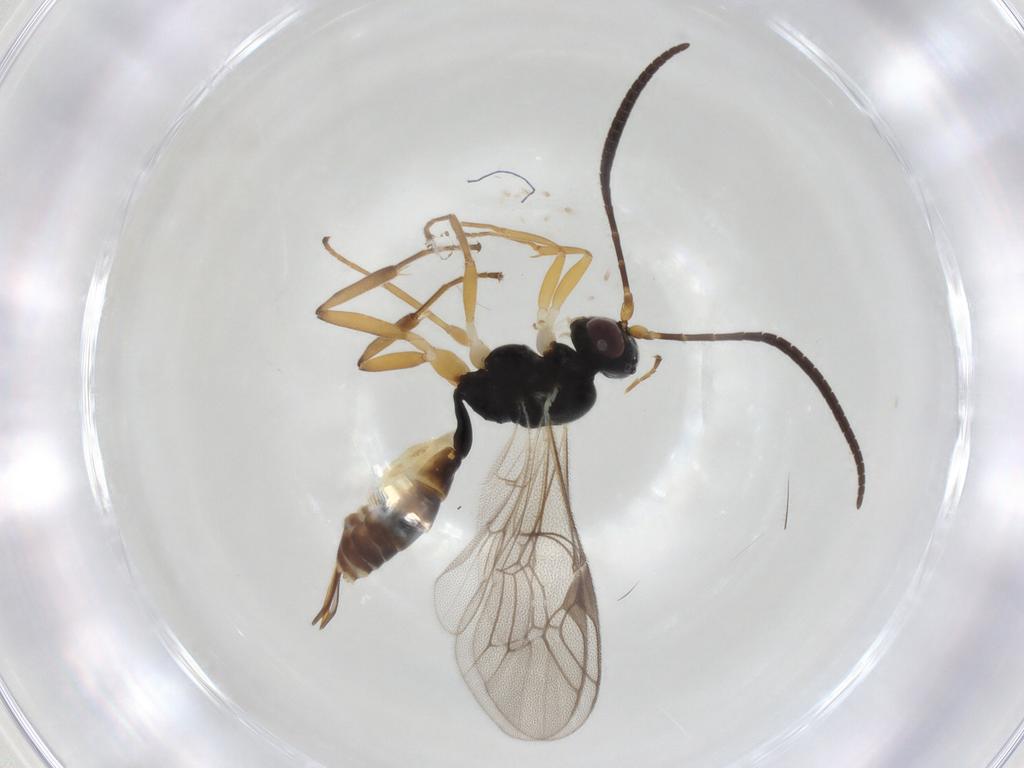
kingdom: Animalia
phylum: Arthropoda
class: Insecta
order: Hymenoptera
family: Ichneumonidae
